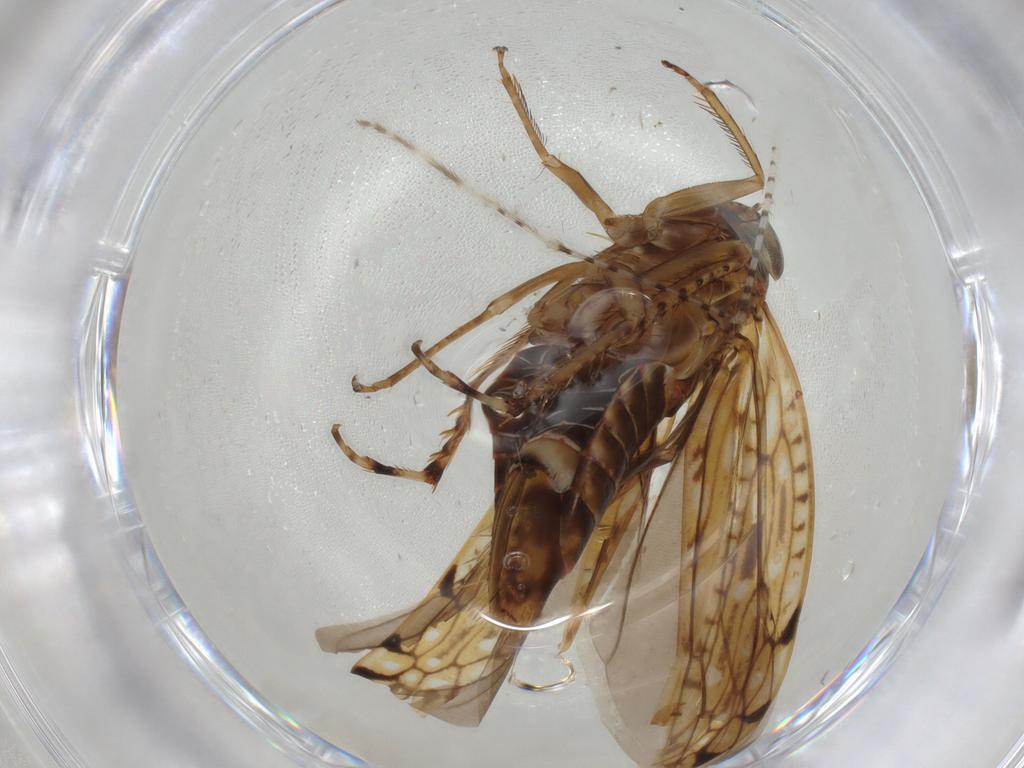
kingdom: Animalia
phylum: Arthropoda
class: Insecta
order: Hemiptera
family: Cicadellidae
